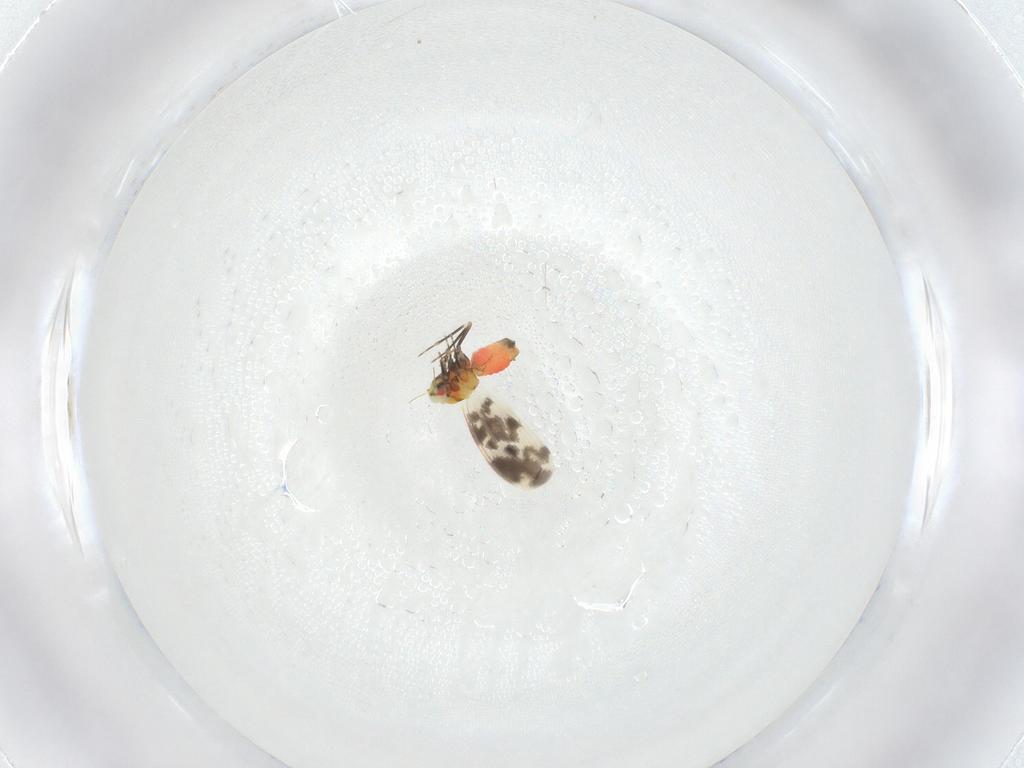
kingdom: Animalia
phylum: Arthropoda
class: Insecta
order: Hemiptera
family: Aleyrodidae
